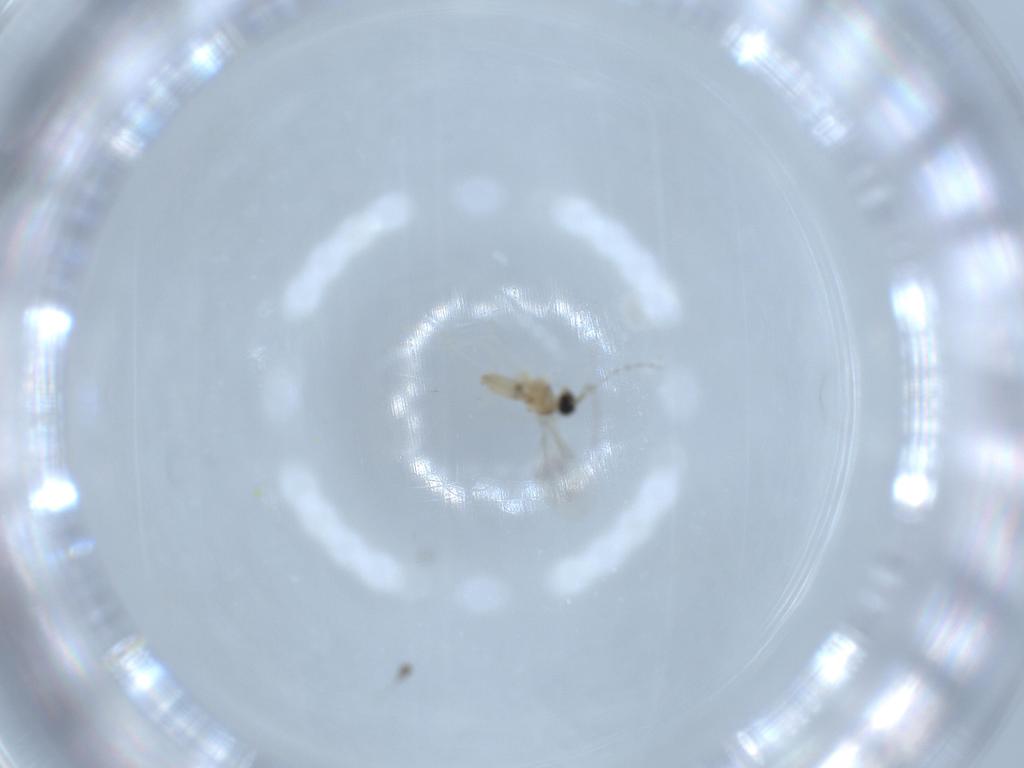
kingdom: Animalia
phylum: Arthropoda
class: Insecta
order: Diptera
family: Cecidomyiidae
